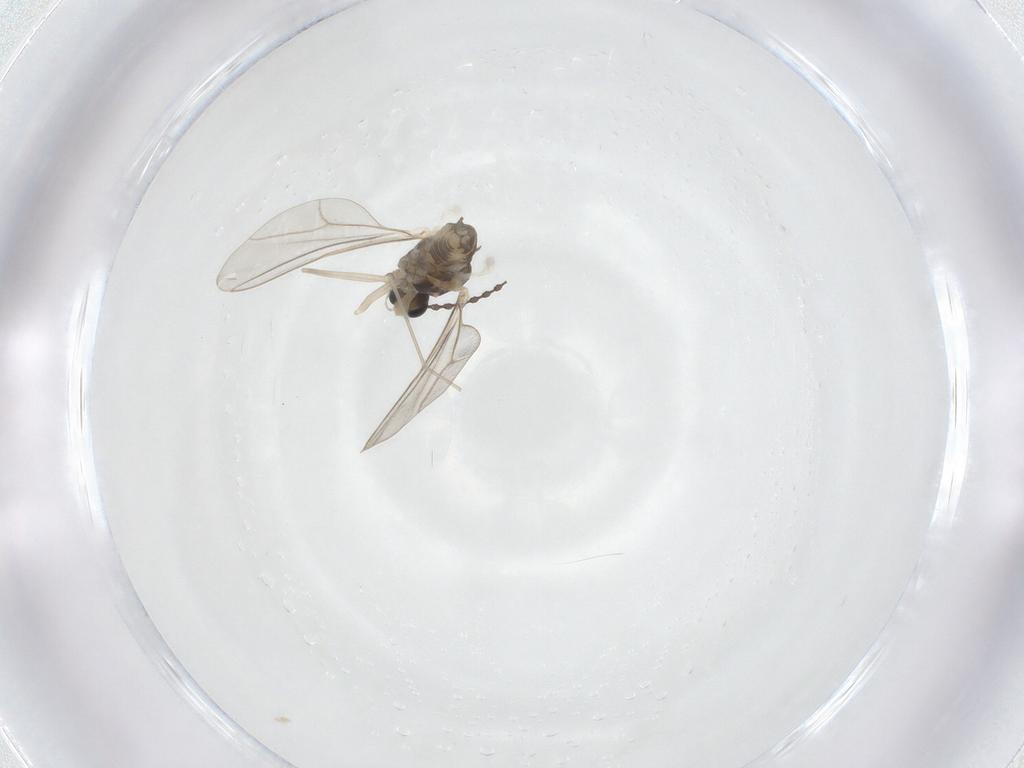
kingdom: Animalia
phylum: Arthropoda
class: Insecta
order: Diptera
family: Cecidomyiidae
